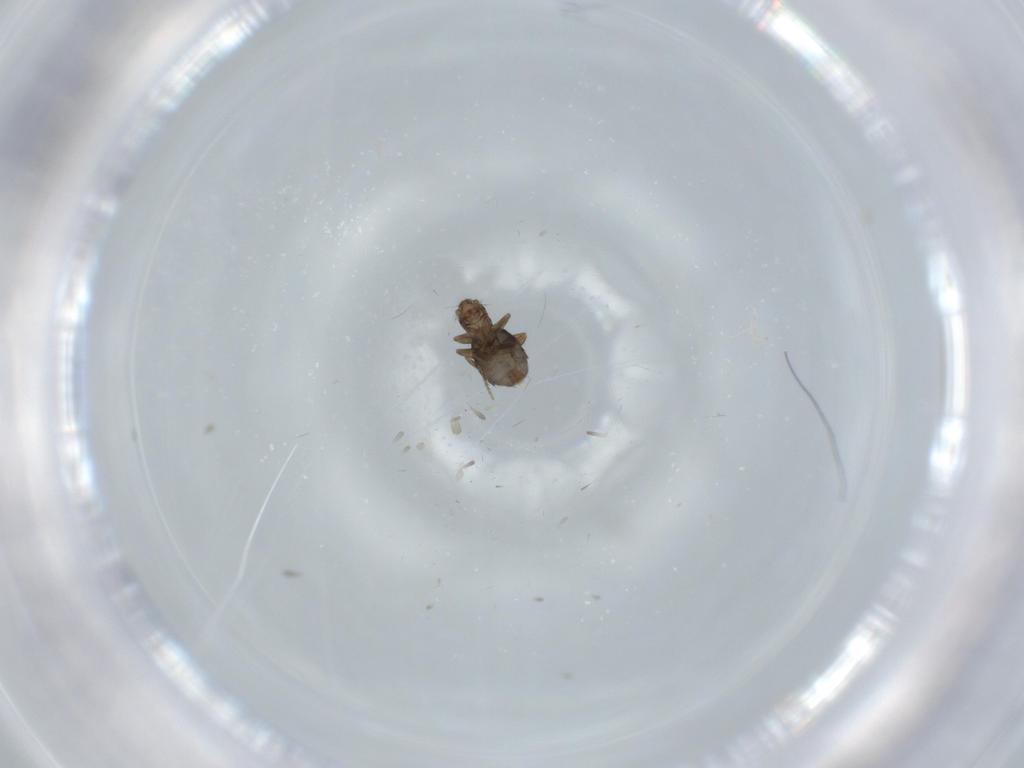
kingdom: Animalia
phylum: Arthropoda
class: Insecta
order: Diptera
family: Phoridae
